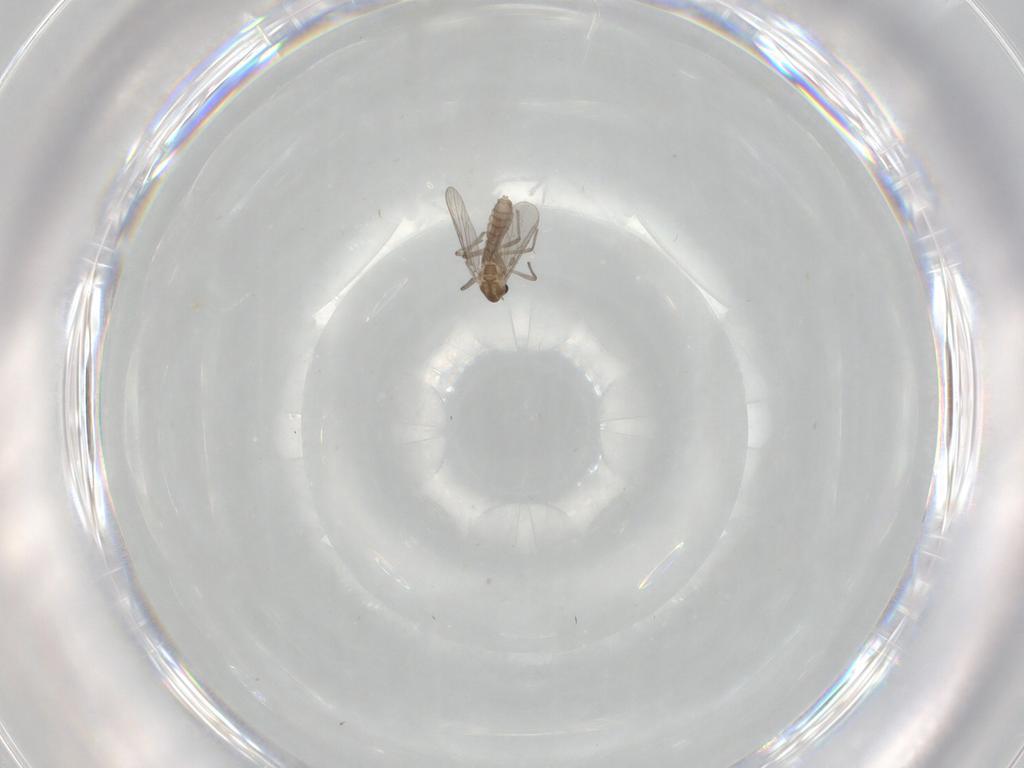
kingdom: Animalia
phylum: Arthropoda
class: Insecta
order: Diptera
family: Chironomidae
